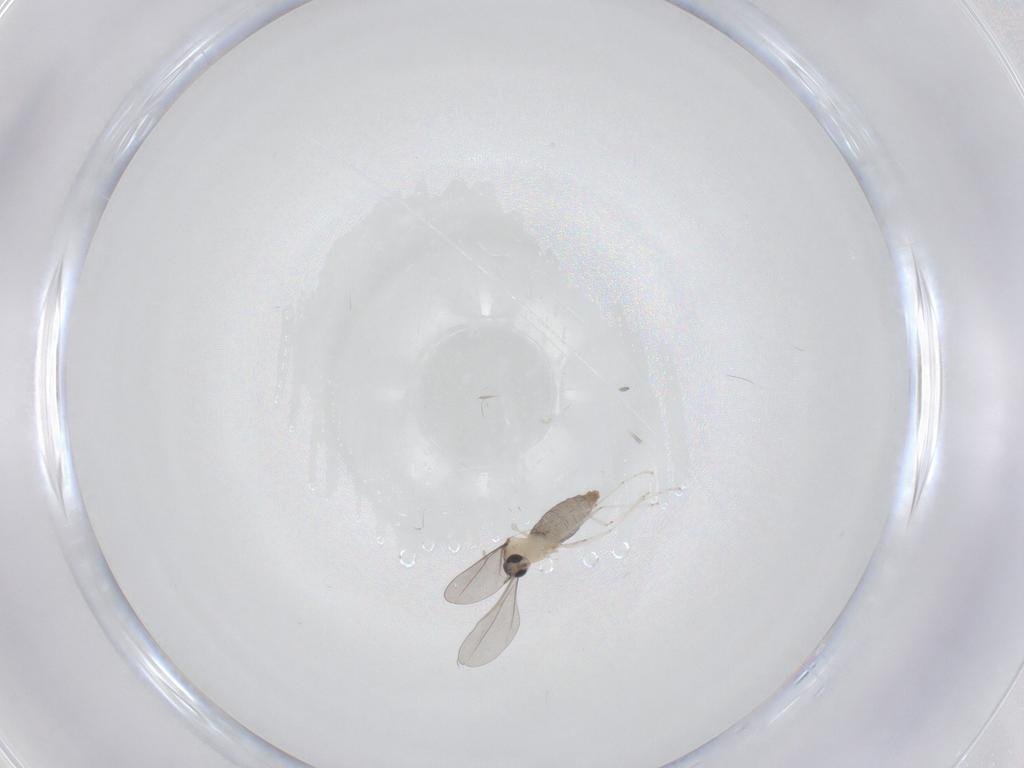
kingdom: Animalia
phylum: Arthropoda
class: Insecta
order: Diptera
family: Cecidomyiidae
